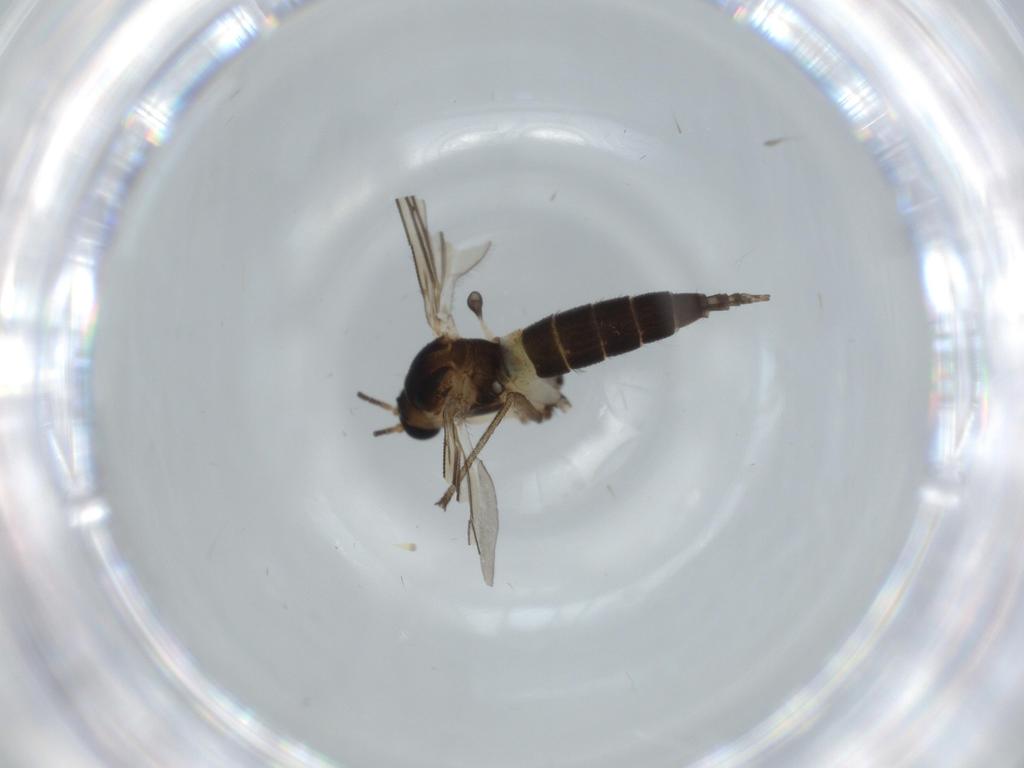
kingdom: Animalia
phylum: Arthropoda
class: Insecta
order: Diptera
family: Sciaridae
